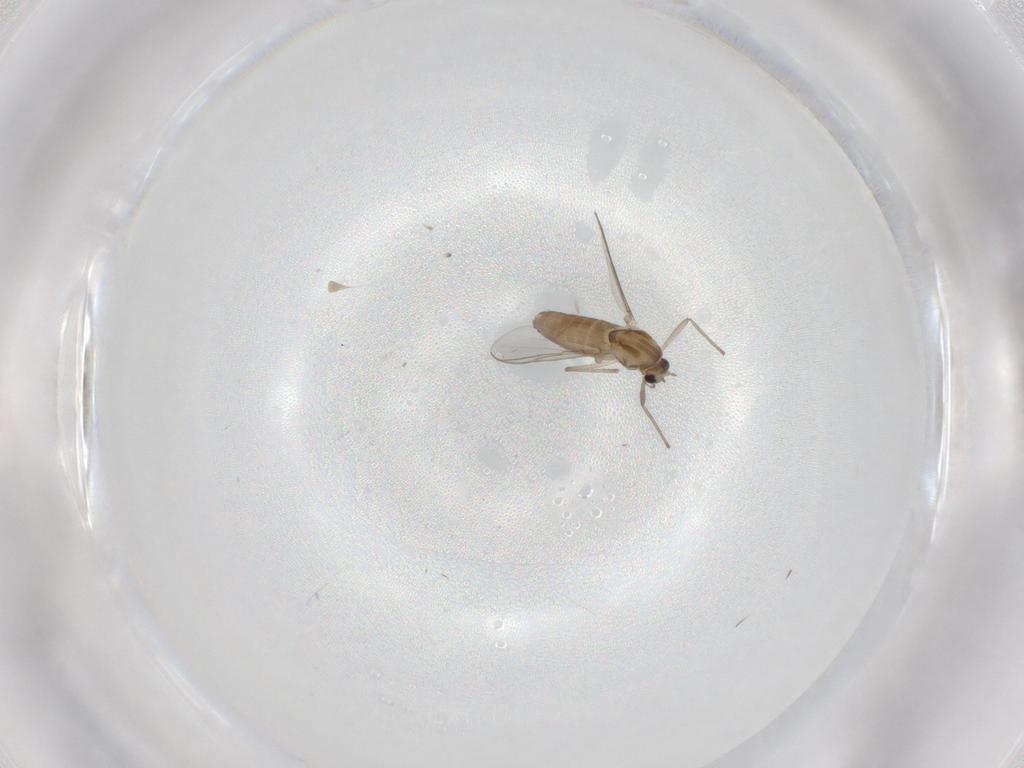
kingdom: Animalia
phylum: Arthropoda
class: Insecta
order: Diptera
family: Chironomidae
